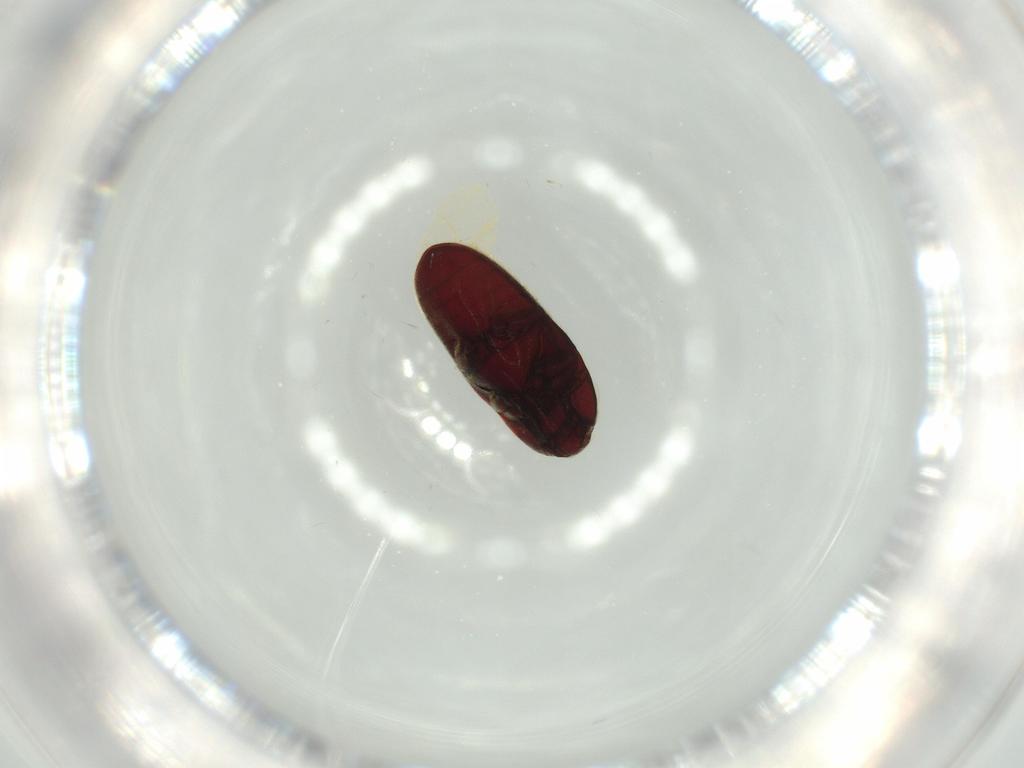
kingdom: Animalia
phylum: Arthropoda
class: Insecta
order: Coleoptera
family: Throscidae
